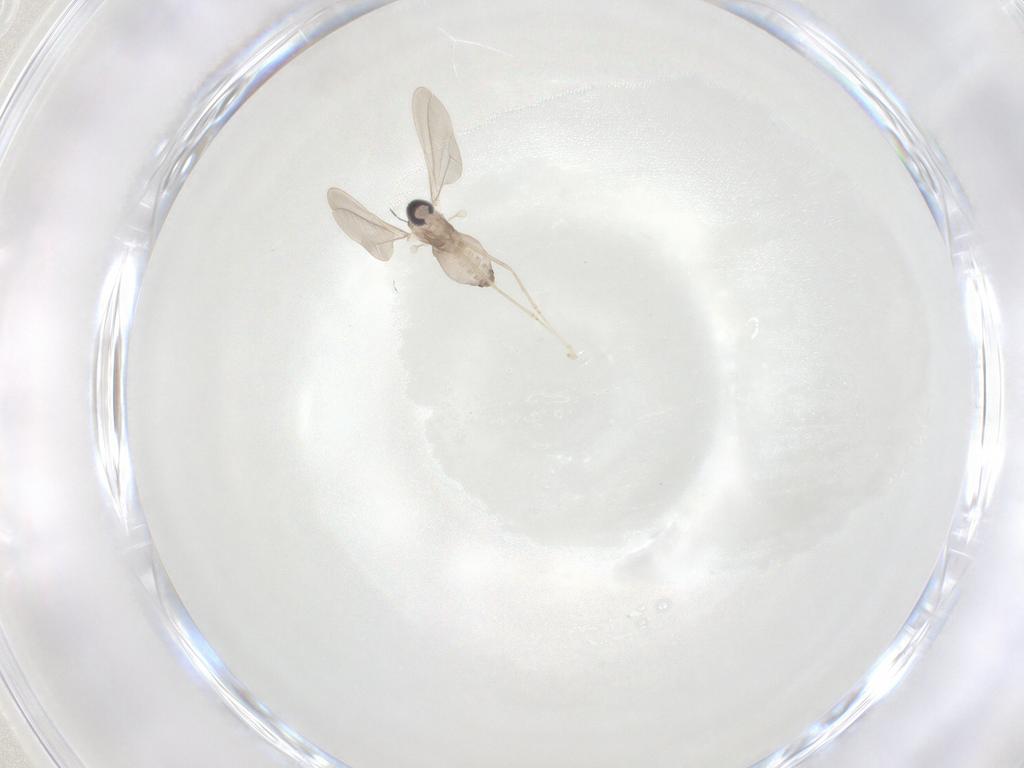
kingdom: Animalia
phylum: Arthropoda
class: Insecta
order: Diptera
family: Cecidomyiidae
